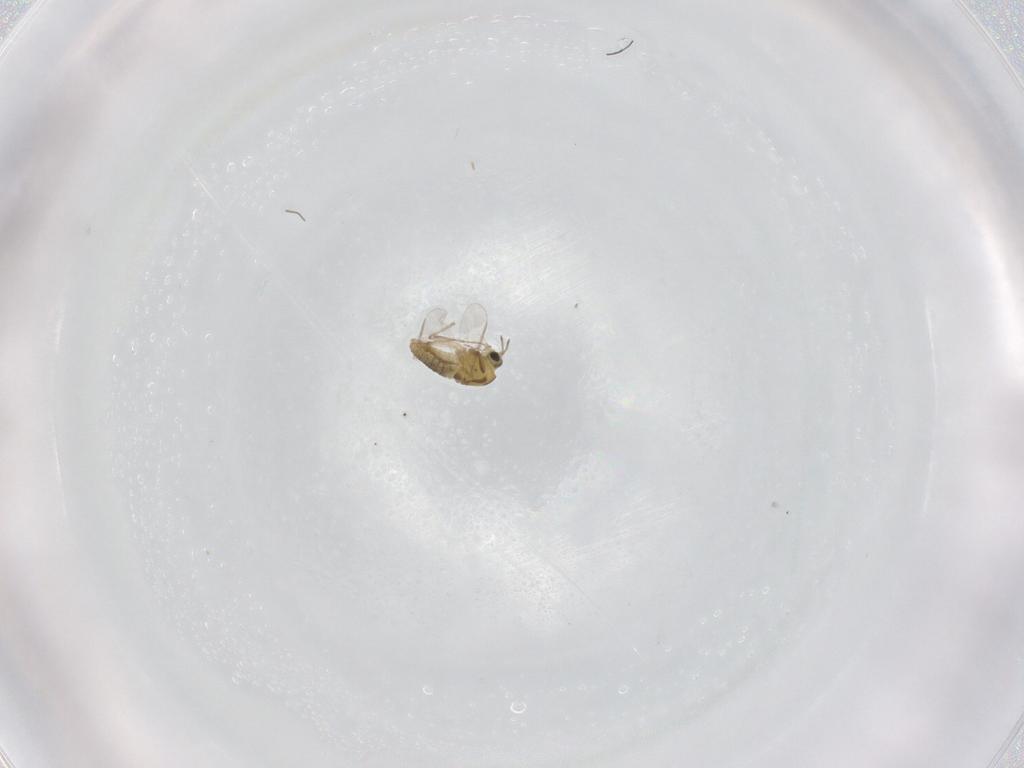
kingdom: Animalia
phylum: Arthropoda
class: Insecta
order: Diptera
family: Chironomidae
